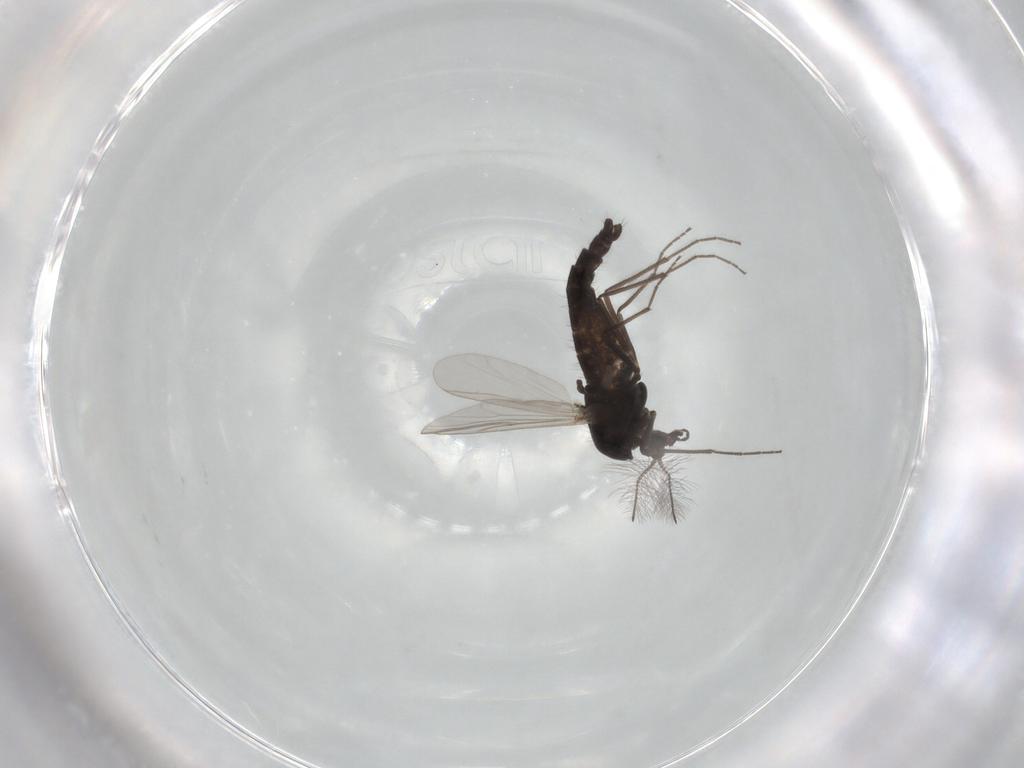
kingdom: Animalia
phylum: Arthropoda
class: Insecta
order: Diptera
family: Chironomidae
